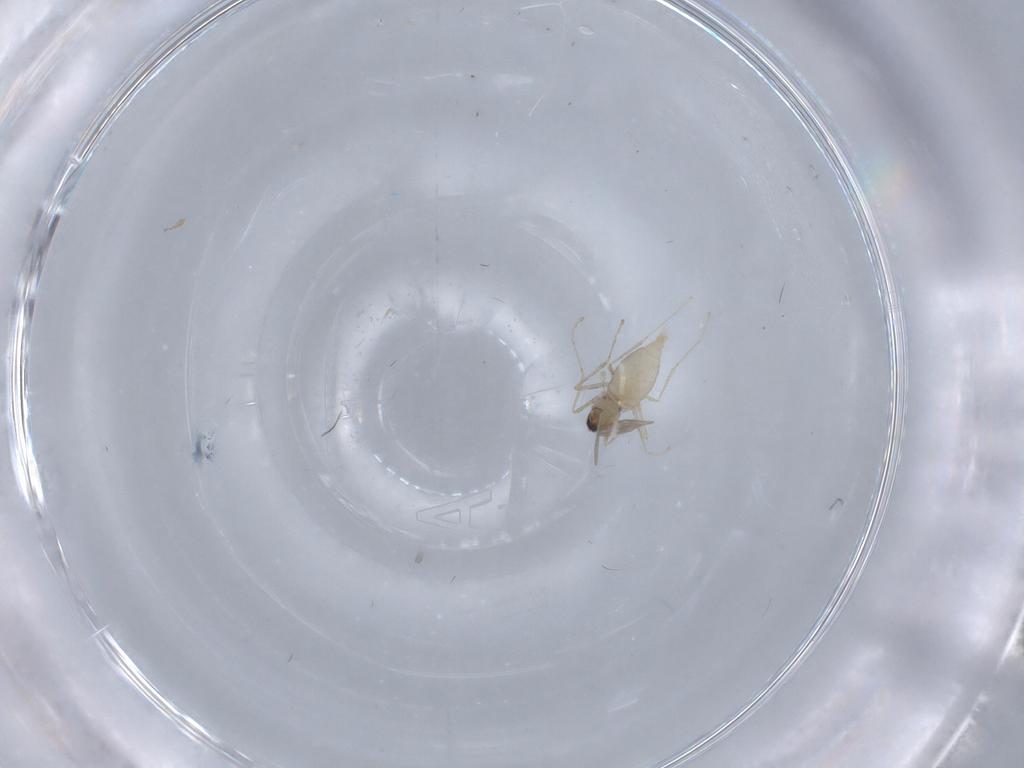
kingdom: Animalia
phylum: Arthropoda
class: Insecta
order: Diptera
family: Cecidomyiidae
